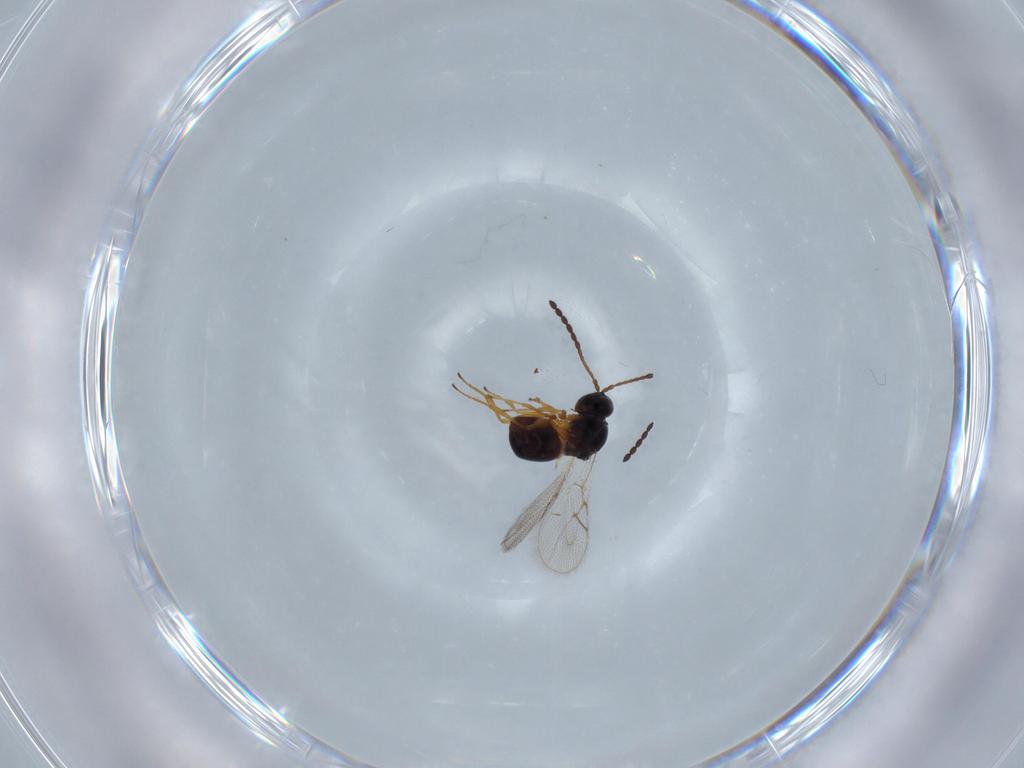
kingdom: Animalia
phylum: Arthropoda
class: Insecta
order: Hymenoptera
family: Figitidae
